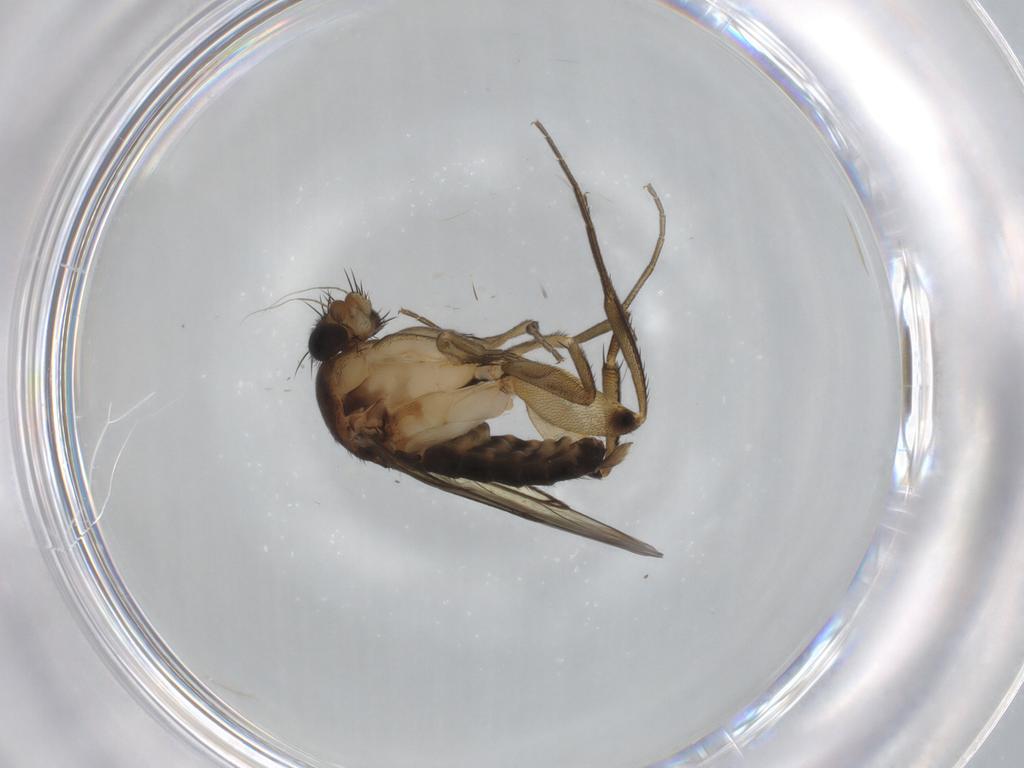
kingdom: Animalia
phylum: Arthropoda
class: Insecta
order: Diptera
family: Phoridae
